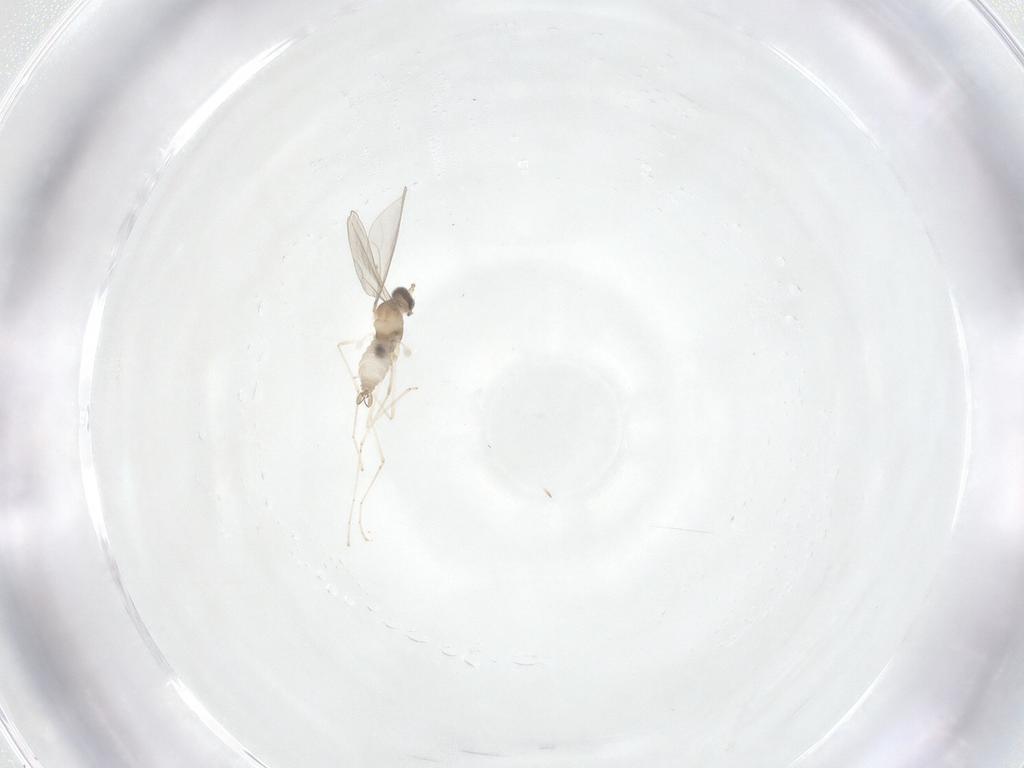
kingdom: Animalia
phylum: Arthropoda
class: Insecta
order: Diptera
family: Cecidomyiidae
